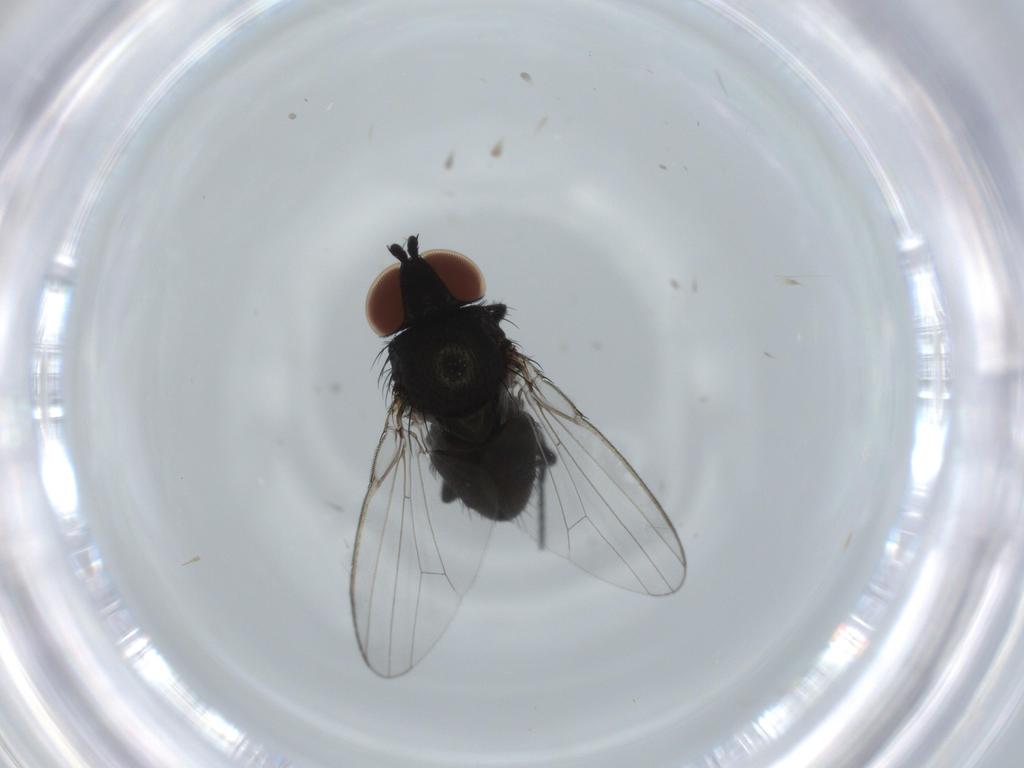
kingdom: Animalia
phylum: Arthropoda
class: Insecta
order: Diptera
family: Milichiidae
